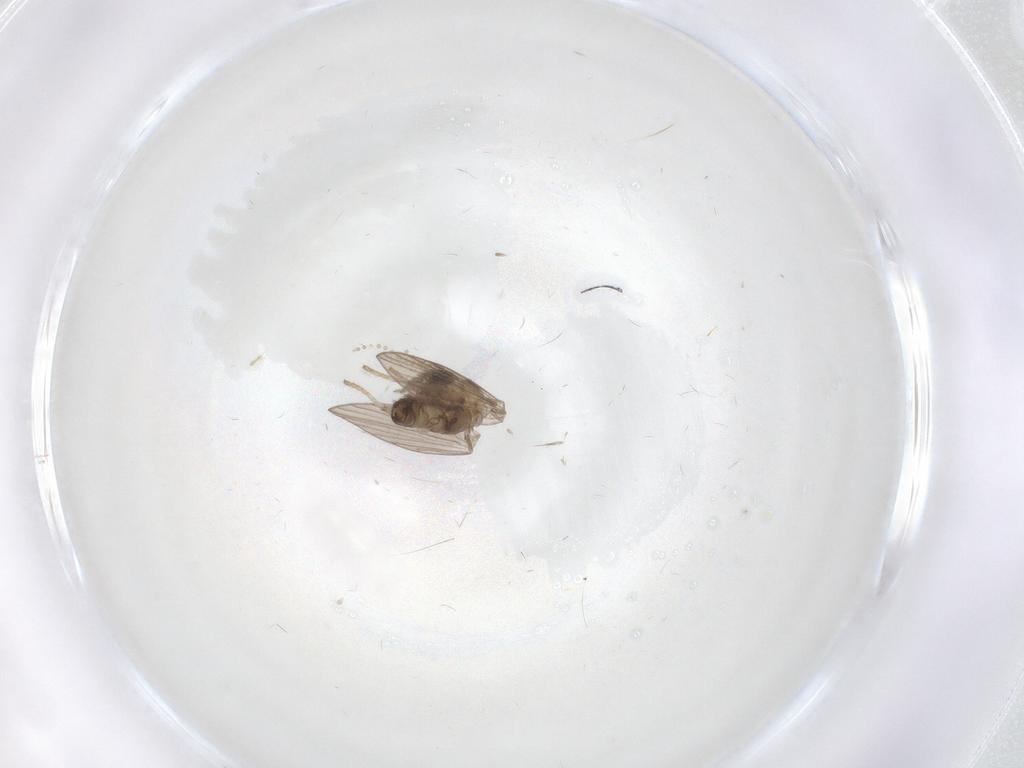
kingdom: Animalia
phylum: Arthropoda
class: Insecta
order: Diptera
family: Psychodidae
